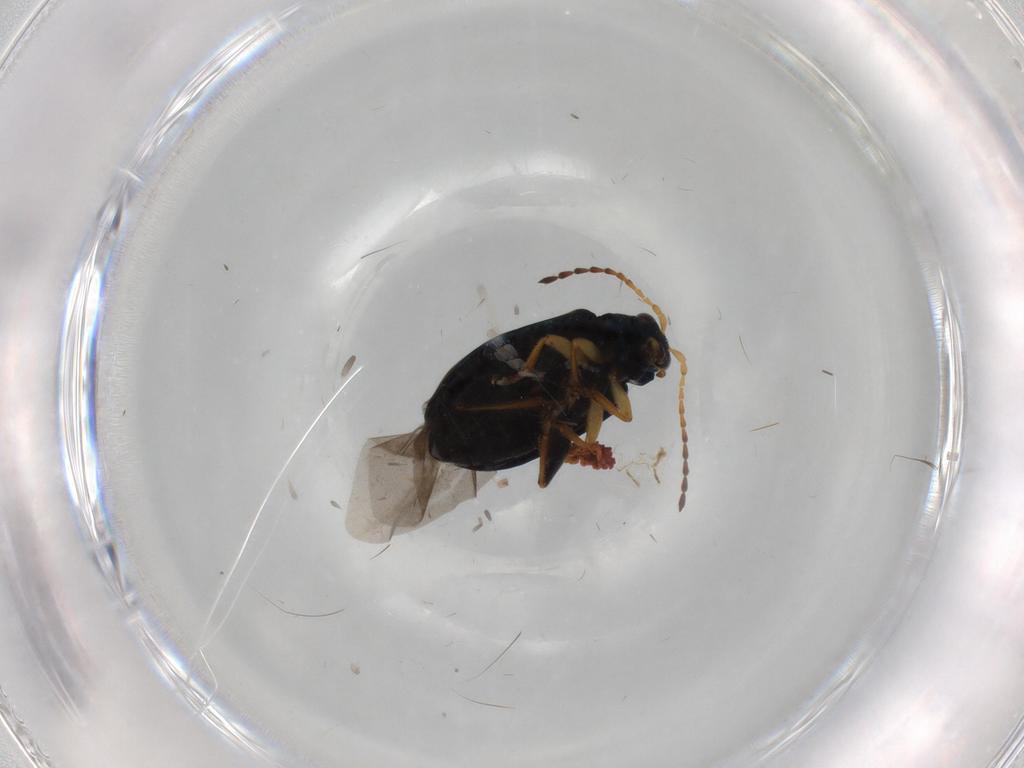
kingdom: Animalia
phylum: Arthropoda
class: Insecta
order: Coleoptera
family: Chrysomelidae
